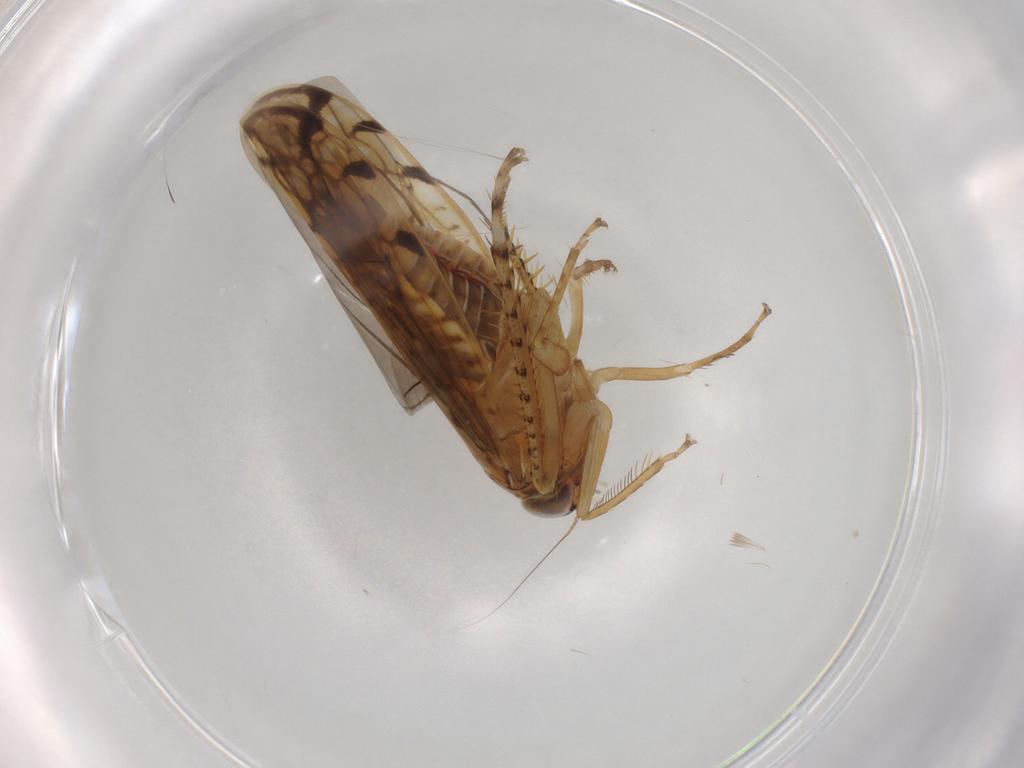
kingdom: Animalia
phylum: Arthropoda
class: Insecta
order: Hemiptera
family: Cicadellidae
